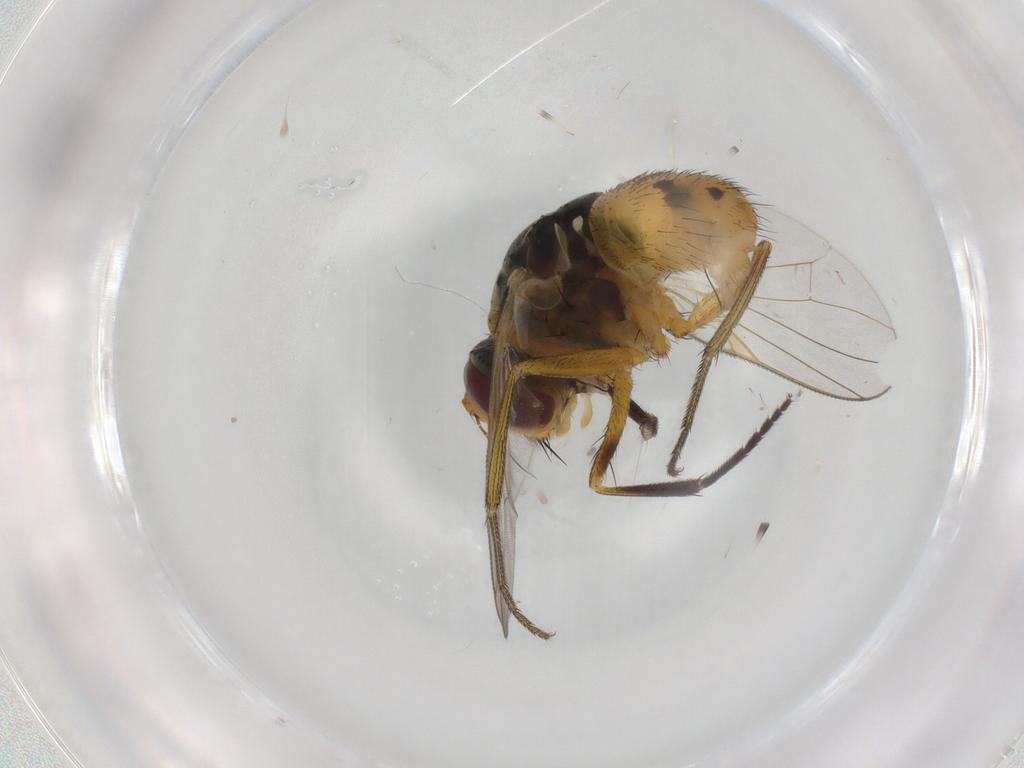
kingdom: Animalia
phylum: Arthropoda
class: Insecta
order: Diptera
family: Muscidae
